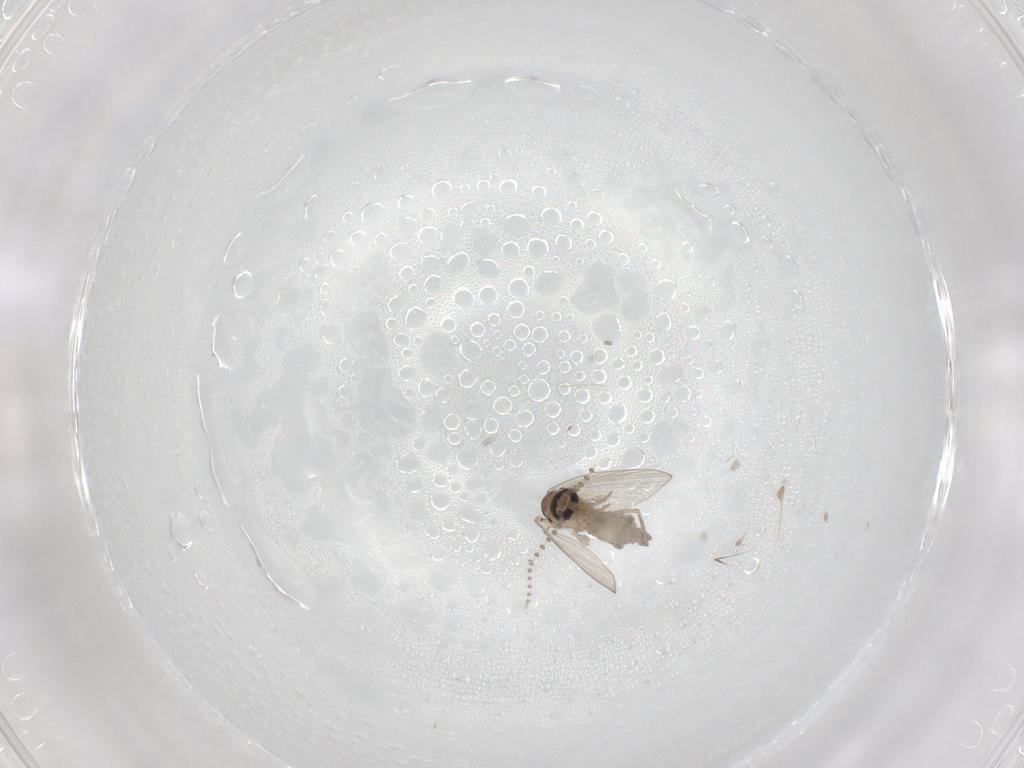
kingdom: Animalia
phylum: Arthropoda
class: Insecta
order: Diptera
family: Psychodidae
